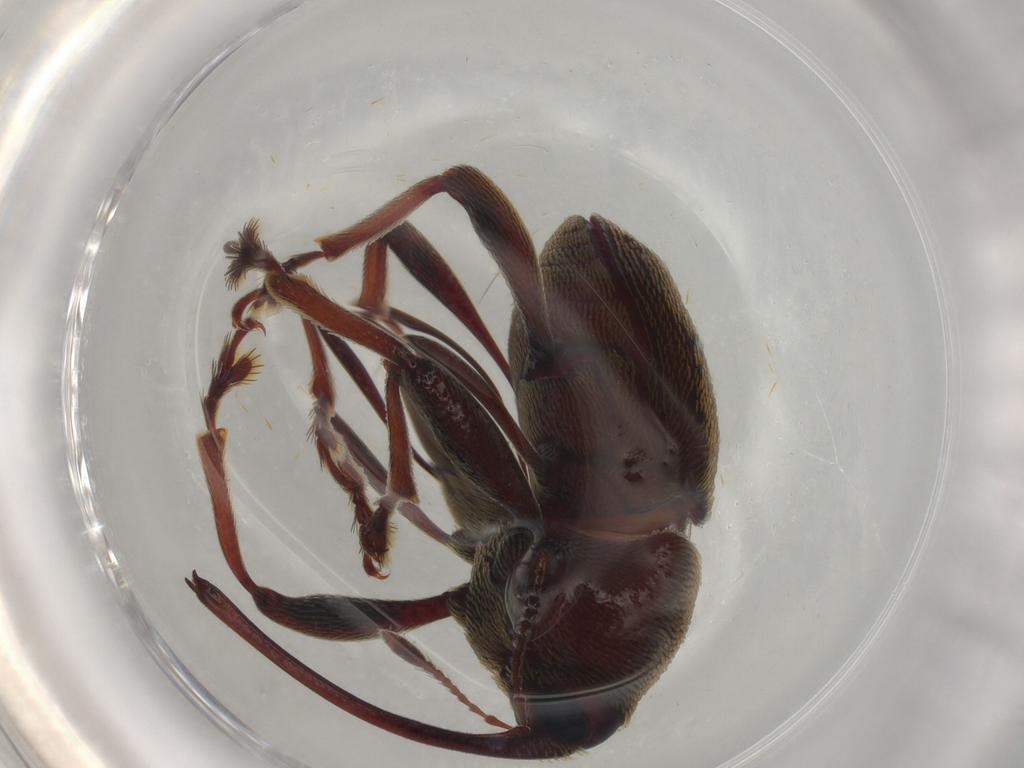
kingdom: Animalia
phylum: Arthropoda
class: Insecta
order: Coleoptera
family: Curculionidae
